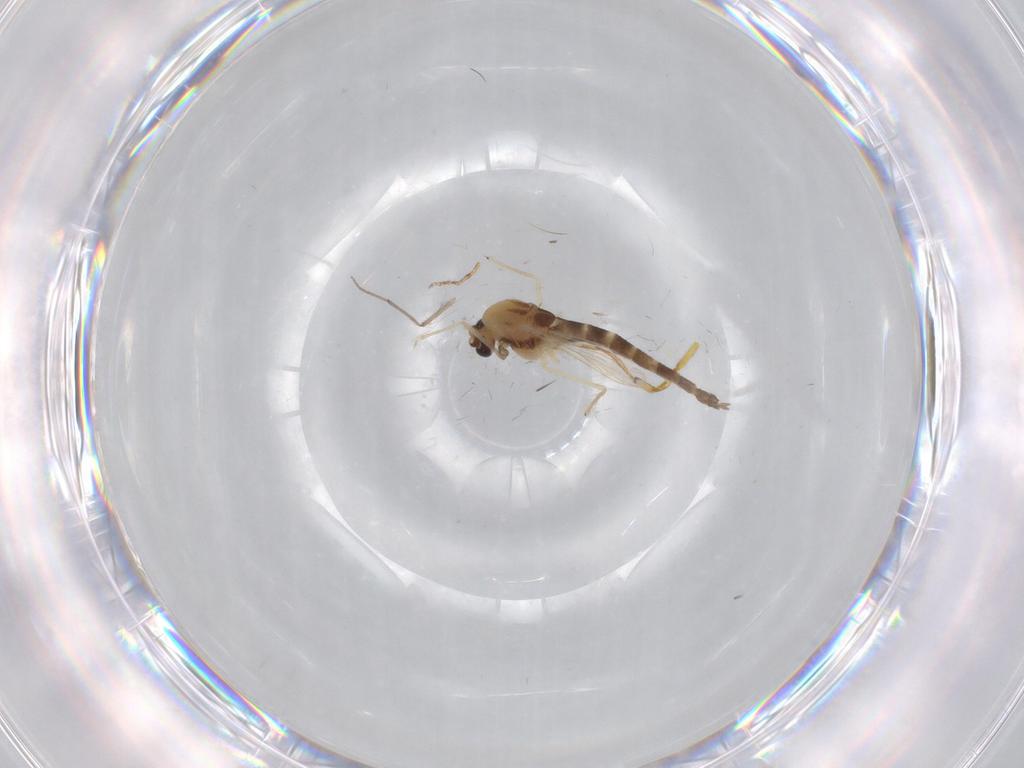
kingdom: Animalia
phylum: Arthropoda
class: Insecta
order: Diptera
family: Chironomidae
